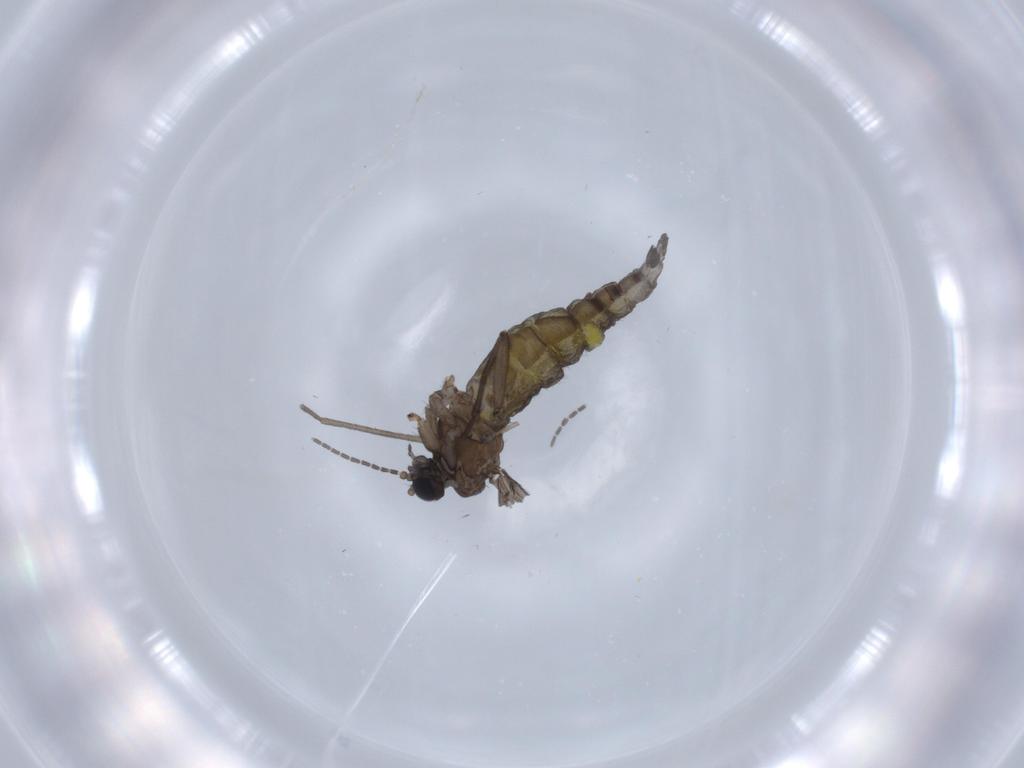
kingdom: Animalia
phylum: Arthropoda
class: Insecta
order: Diptera
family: Sciaridae
